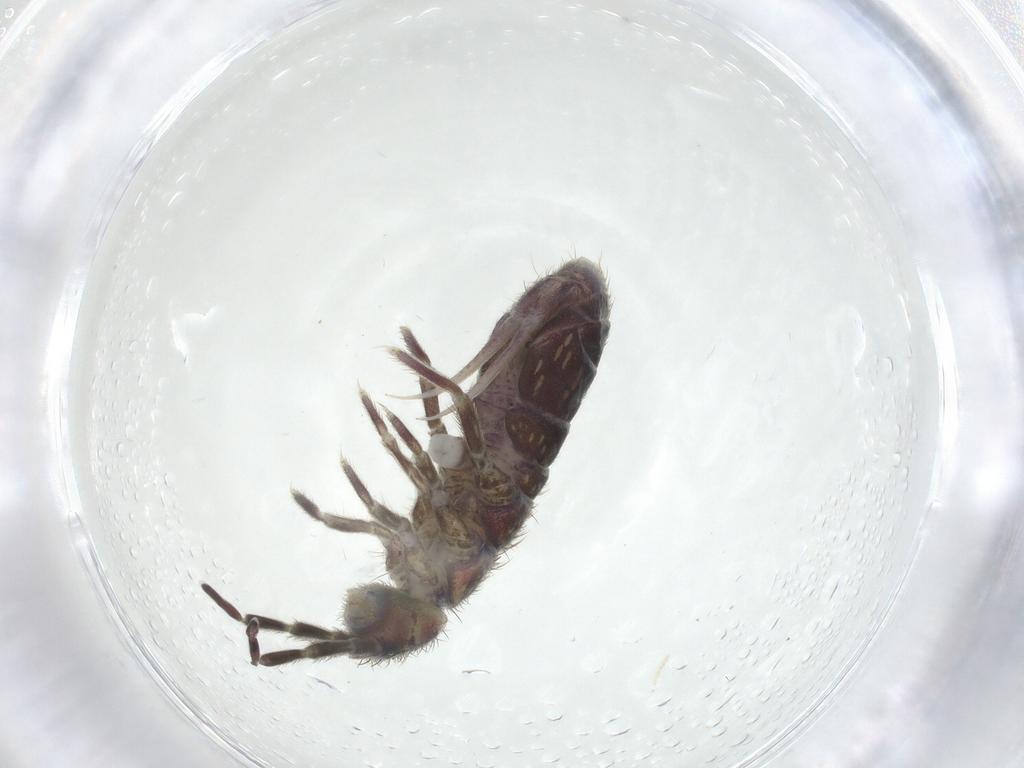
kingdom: Animalia
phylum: Arthropoda
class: Collembola
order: Entomobryomorpha
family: Isotomidae
